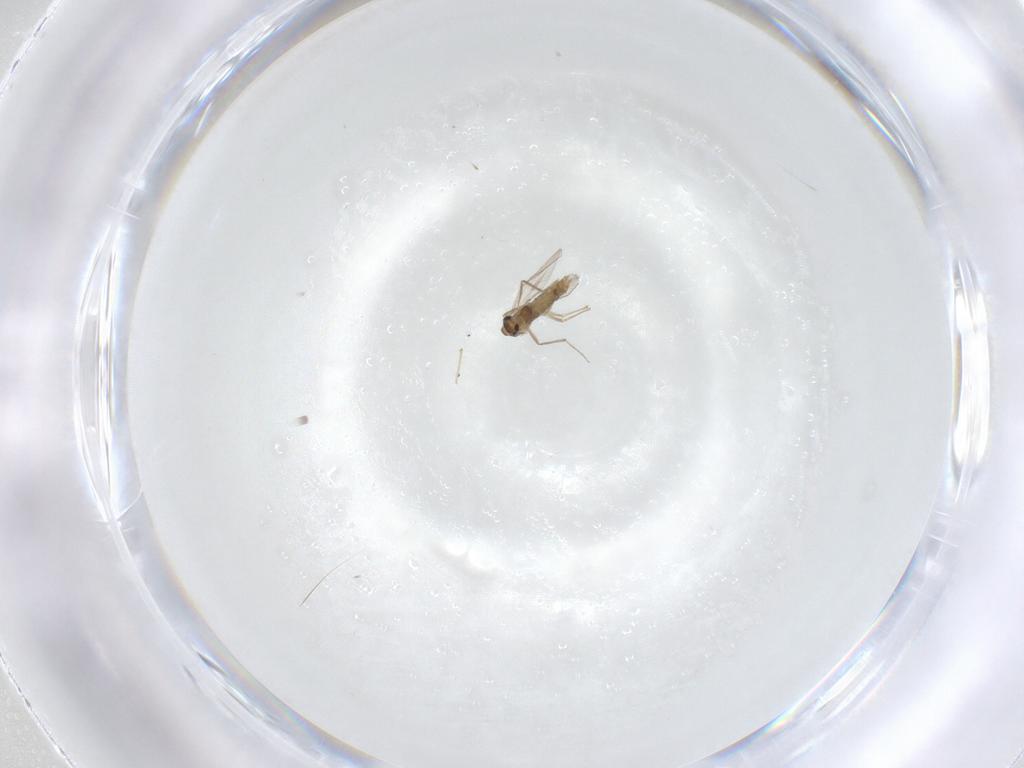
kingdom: Animalia
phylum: Arthropoda
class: Insecta
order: Diptera
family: Chironomidae
